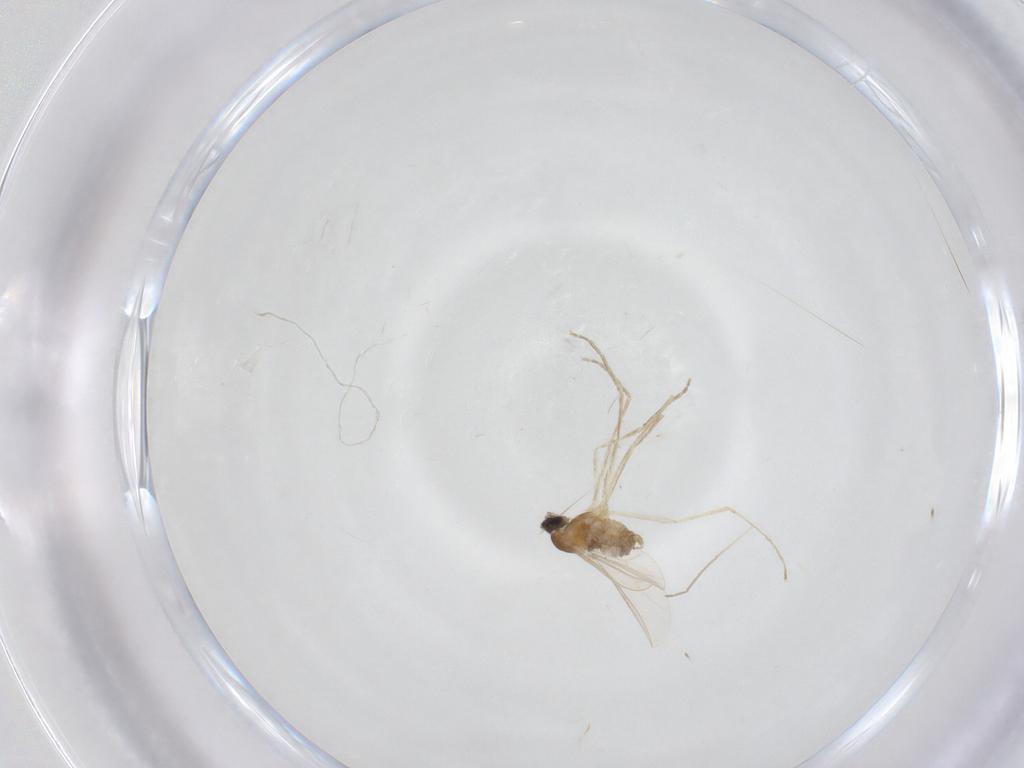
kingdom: Animalia
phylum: Arthropoda
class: Insecta
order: Diptera
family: Cecidomyiidae
